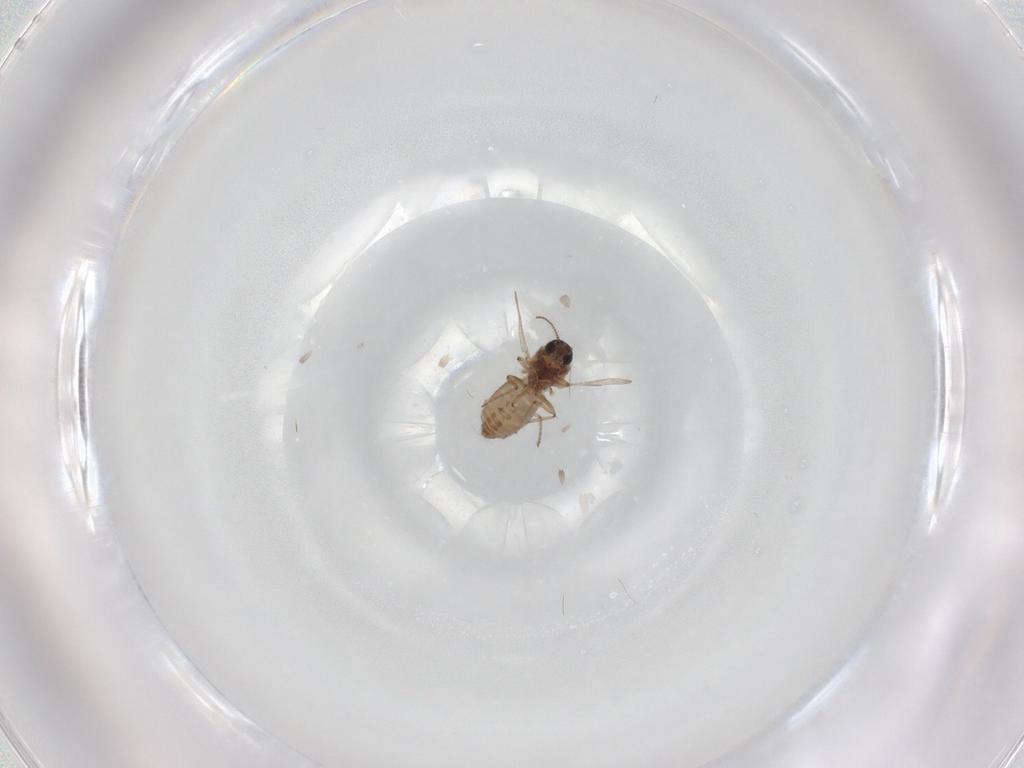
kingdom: Animalia
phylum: Arthropoda
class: Insecta
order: Diptera
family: Ceratopogonidae
